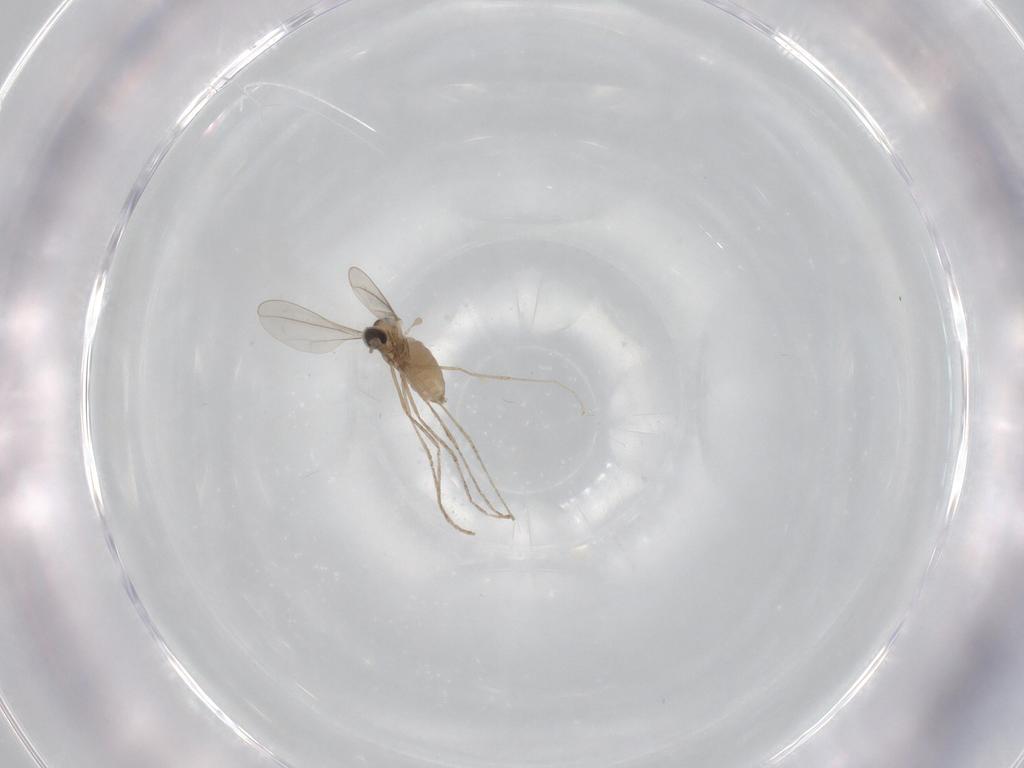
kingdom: Animalia
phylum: Arthropoda
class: Insecta
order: Diptera
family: Cecidomyiidae
